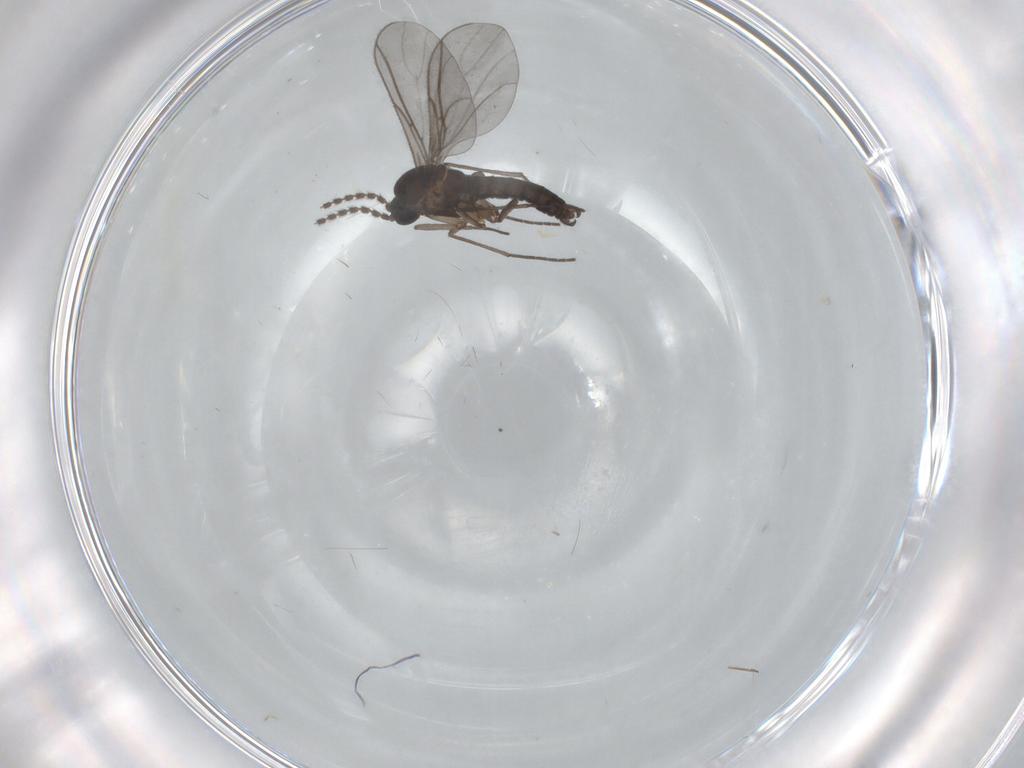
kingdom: Animalia
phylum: Arthropoda
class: Insecta
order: Diptera
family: Sciaridae
